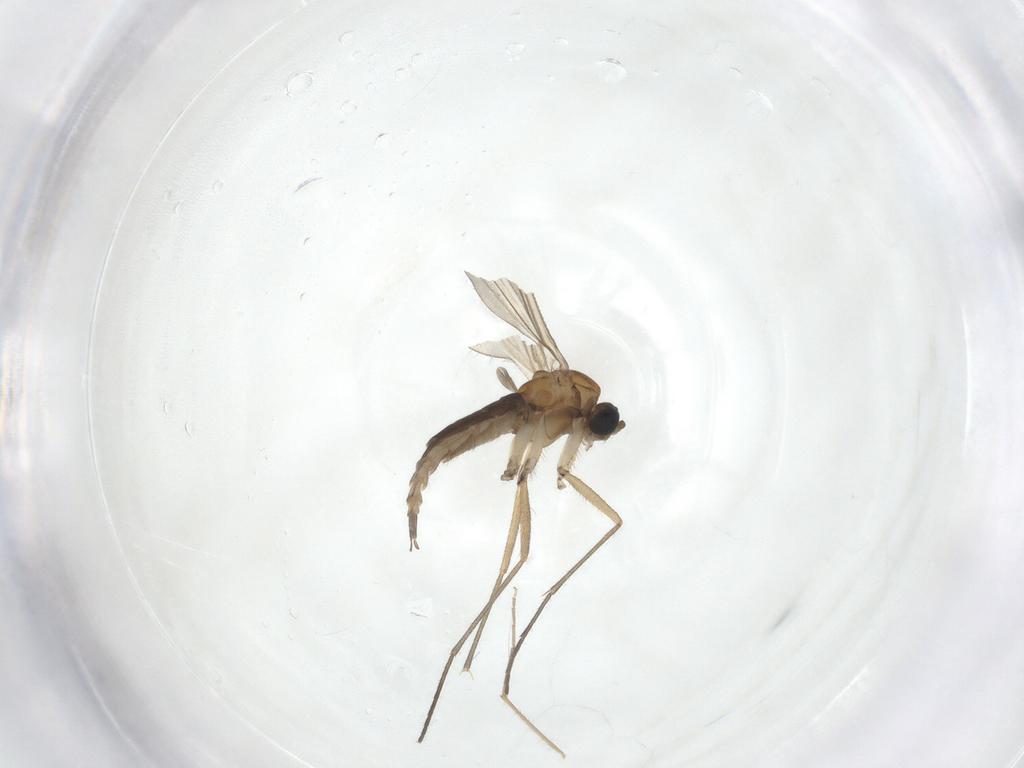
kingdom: Animalia
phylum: Arthropoda
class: Insecta
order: Diptera
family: Sciaridae
